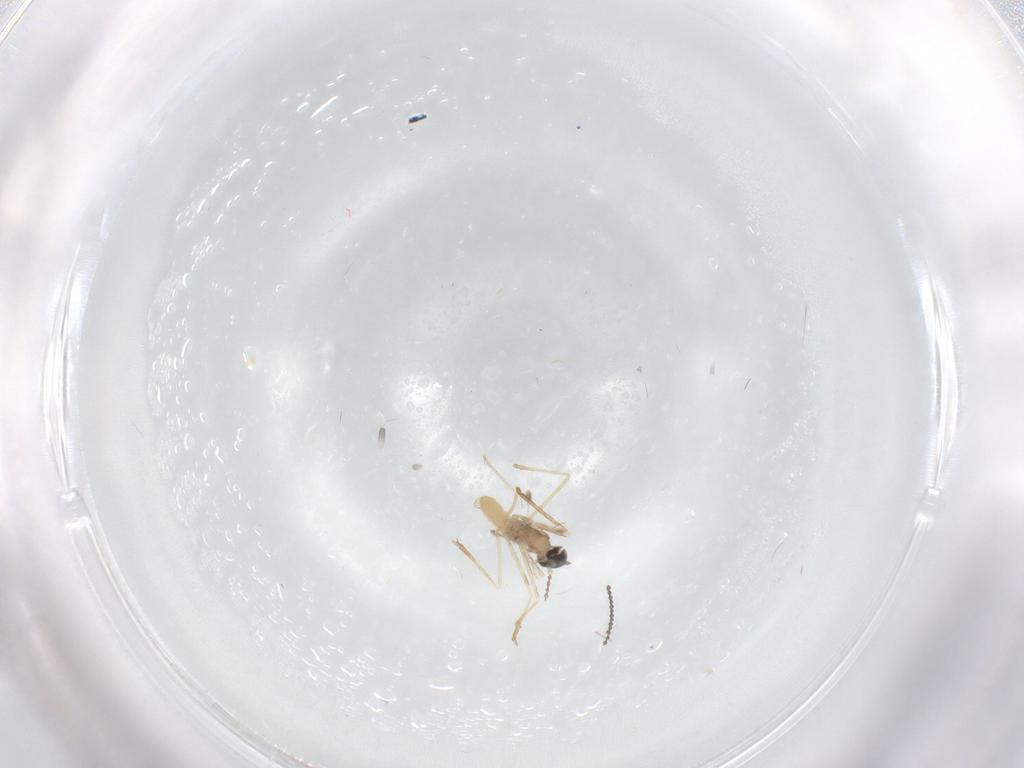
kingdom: Animalia
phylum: Arthropoda
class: Insecta
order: Diptera
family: Cecidomyiidae
